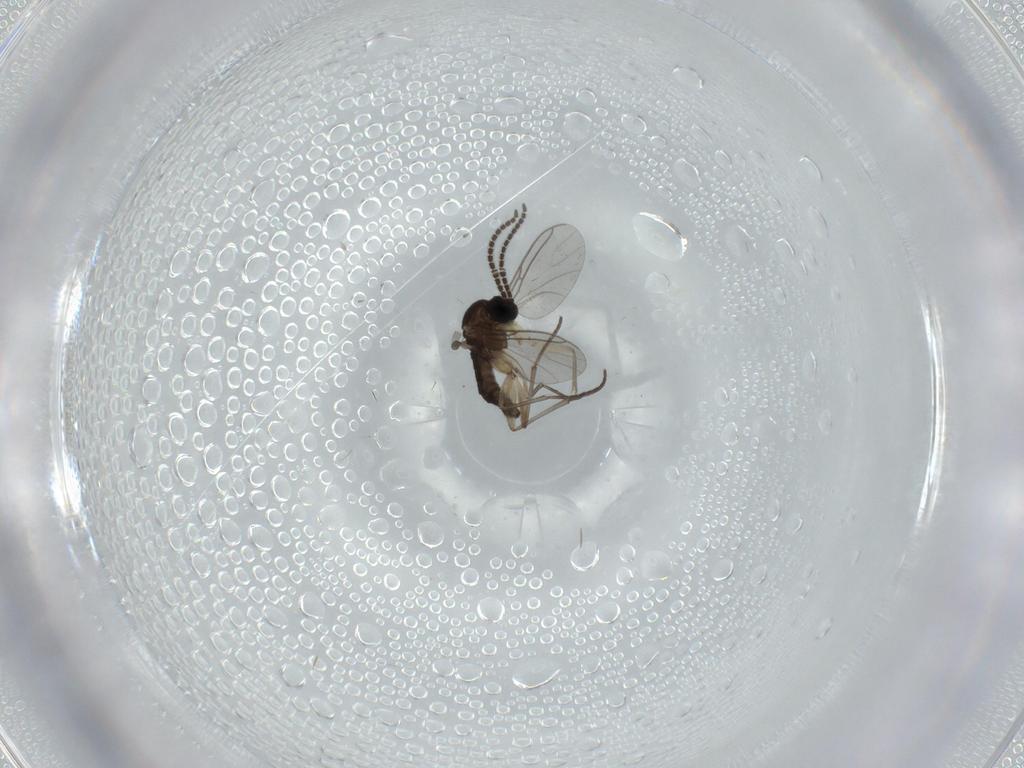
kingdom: Animalia
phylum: Arthropoda
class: Insecta
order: Diptera
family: Sciaridae
